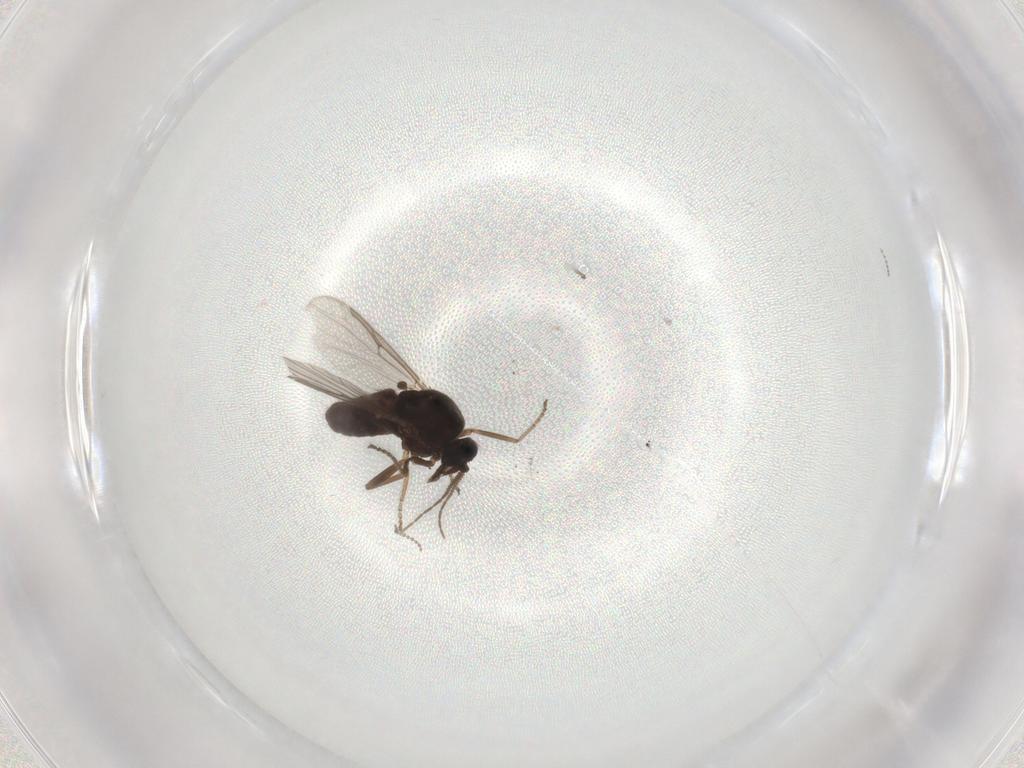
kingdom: Animalia
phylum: Arthropoda
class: Insecta
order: Diptera
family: Ceratopogonidae
